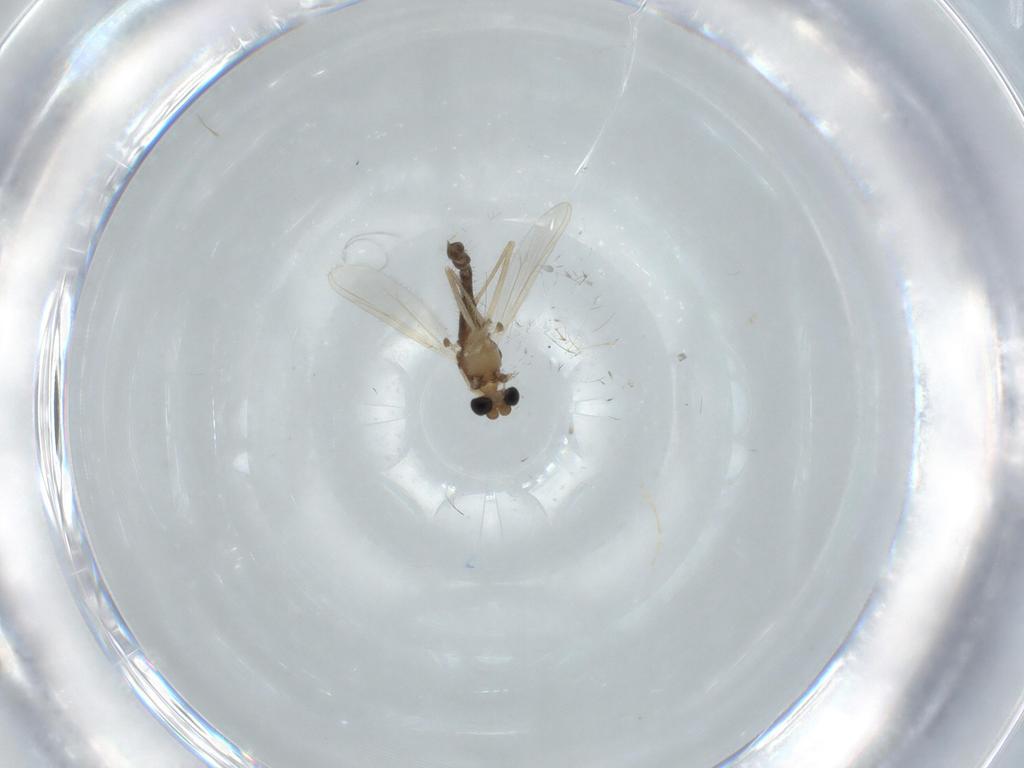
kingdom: Animalia
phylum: Arthropoda
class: Insecta
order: Diptera
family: Chironomidae
